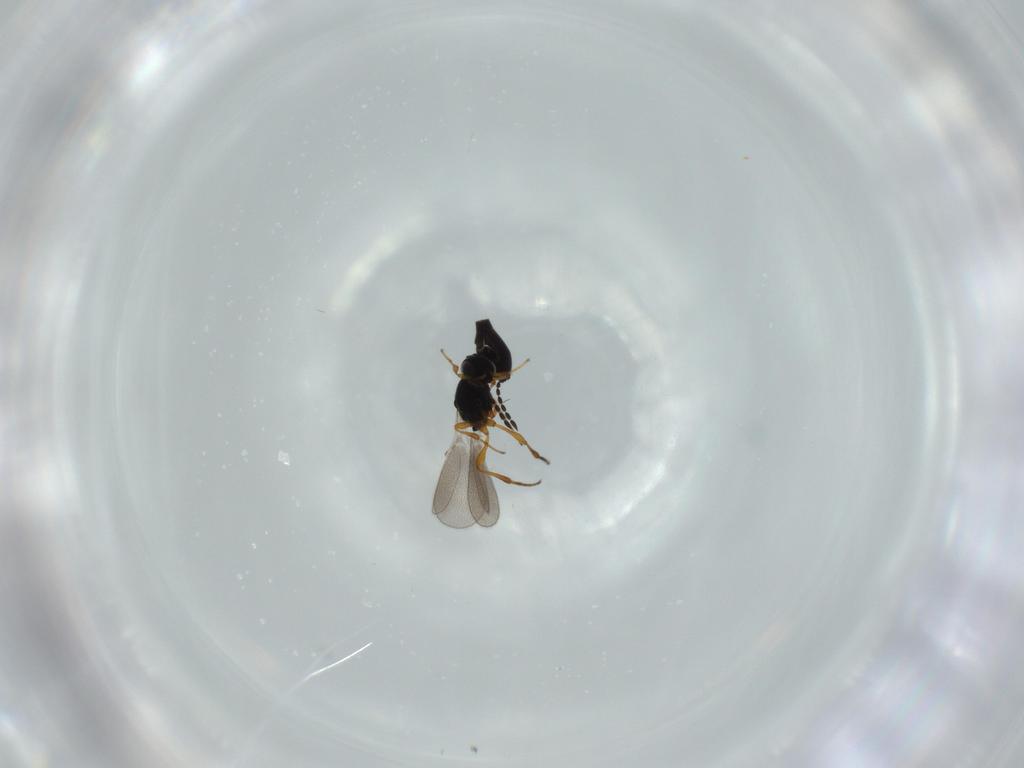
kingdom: Animalia
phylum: Arthropoda
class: Insecta
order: Hymenoptera
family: Platygastridae
